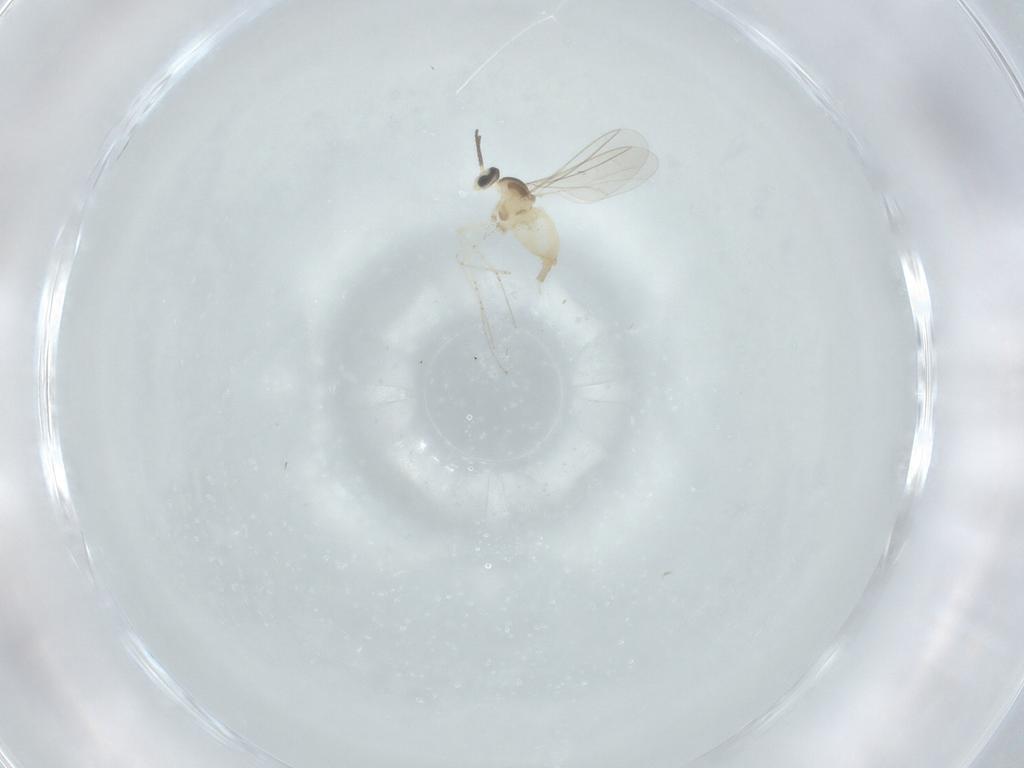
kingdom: Animalia
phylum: Arthropoda
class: Insecta
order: Diptera
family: Cecidomyiidae
